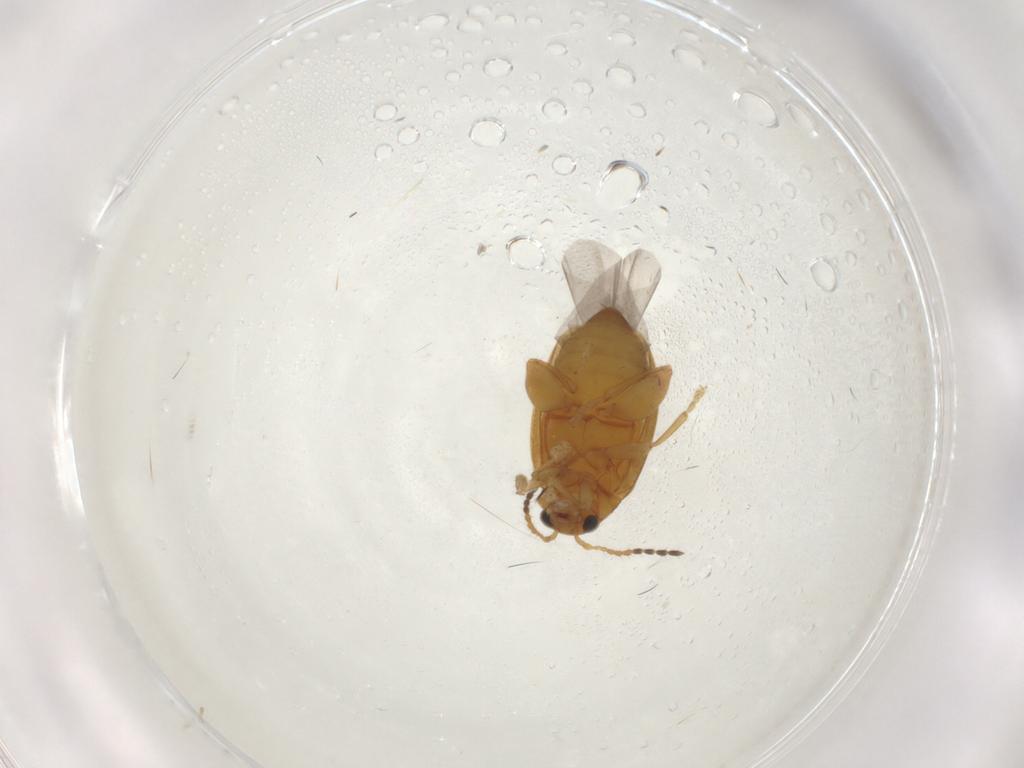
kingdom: Animalia
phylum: Arthropoda
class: Insecta
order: Coleoptera
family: Chrysomelidae
